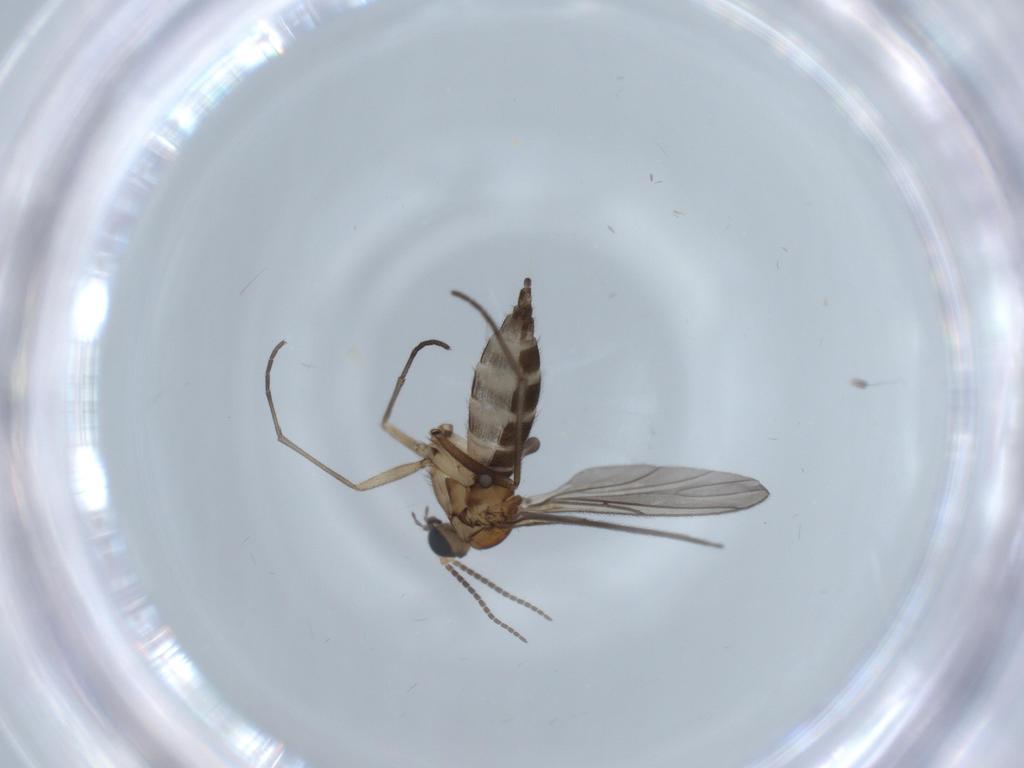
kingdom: Animalia
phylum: Arthropoda
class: Insecta
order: Diptera
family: Sciaridae
